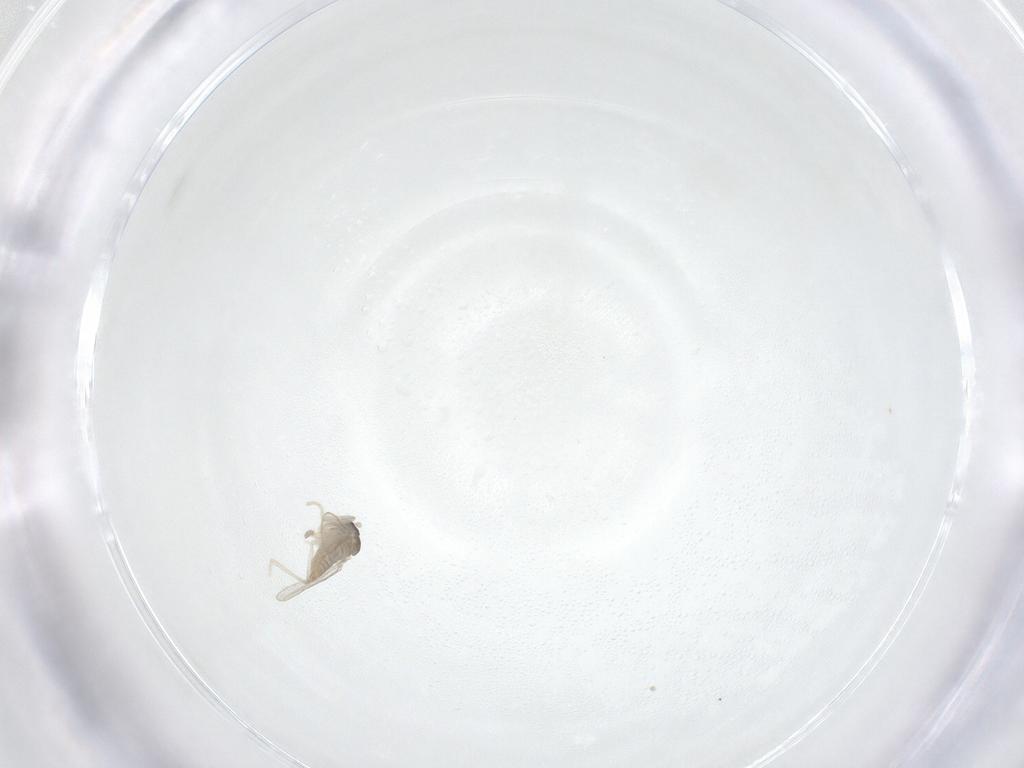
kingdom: Animalia
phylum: Arthropoda
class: Insecta
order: Diptera
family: Cecidomyiidae
